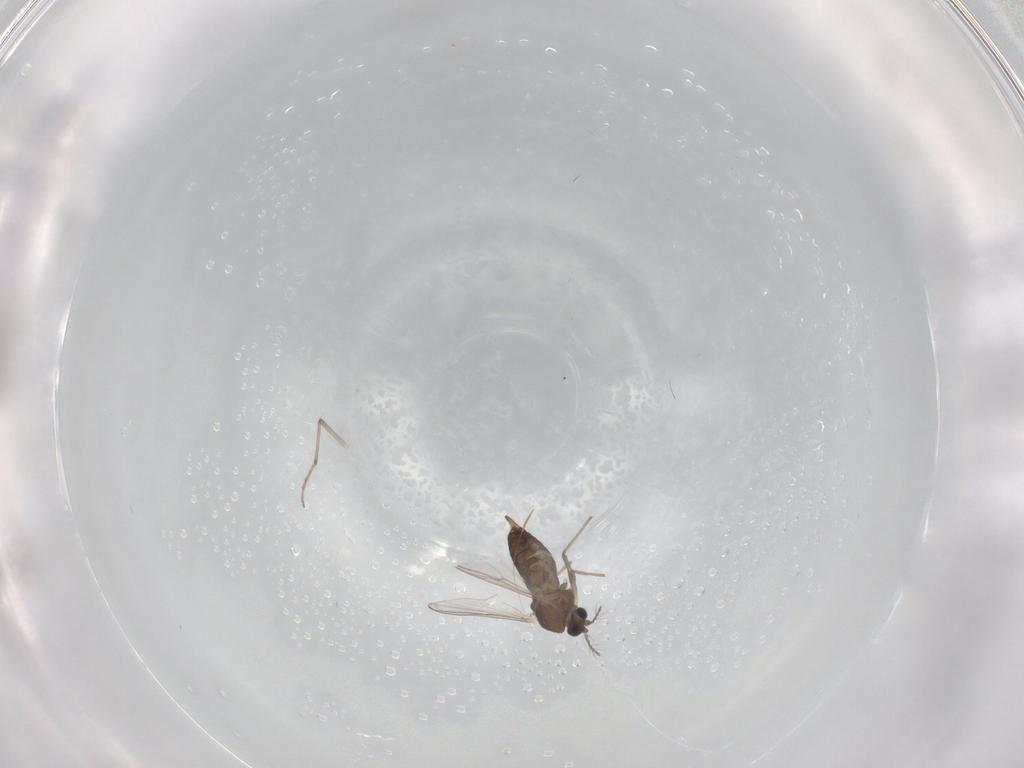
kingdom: Animalia
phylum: Arthropoda
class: Insecta
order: Diptera
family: Chironomidae
